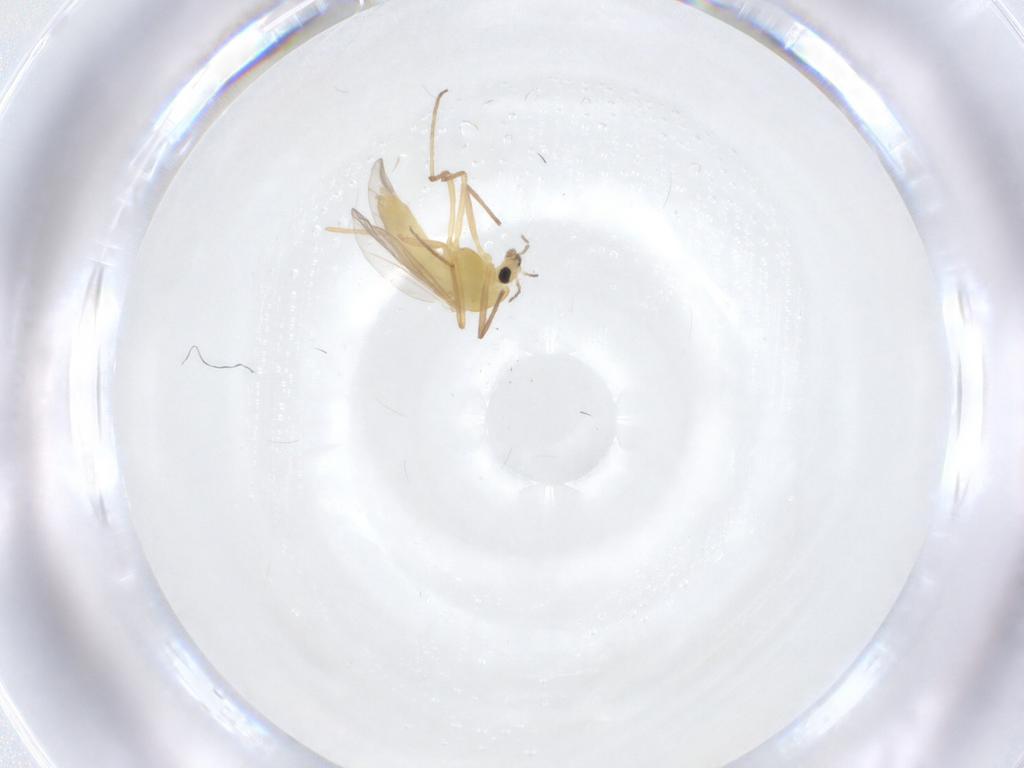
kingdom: Animalia
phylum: Arthropoda
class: Insecta
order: Diptera
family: Chironomidae
